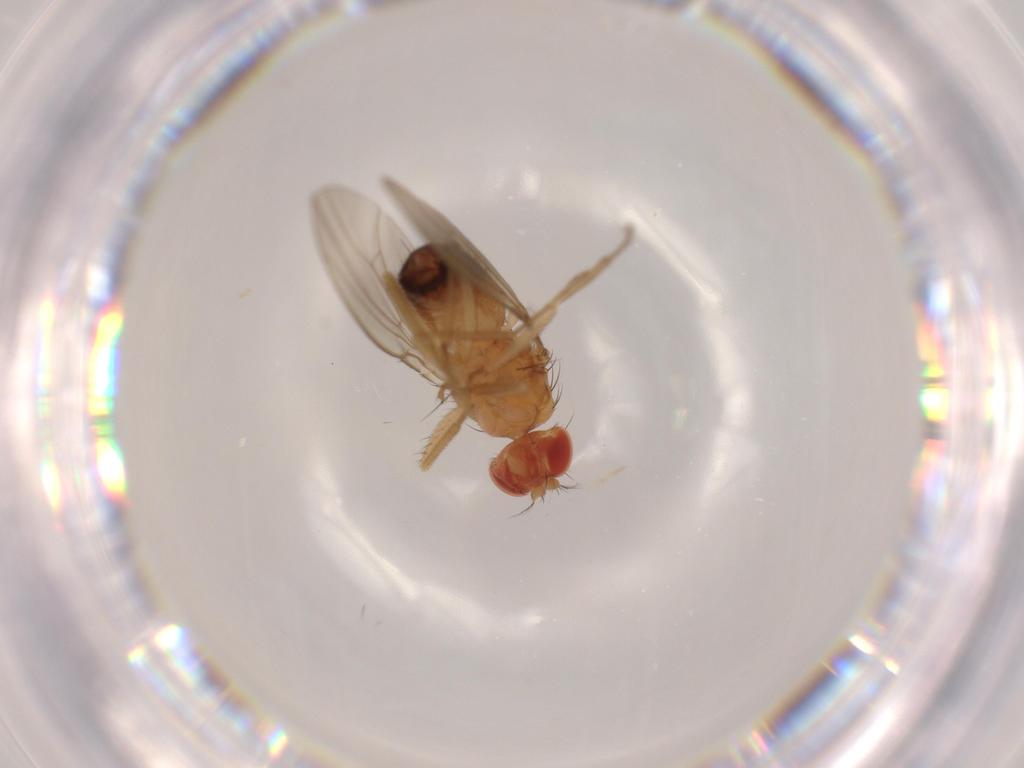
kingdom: Animalia
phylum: Arthropoda
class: Insecta
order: Diptera
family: Drosophilidae
